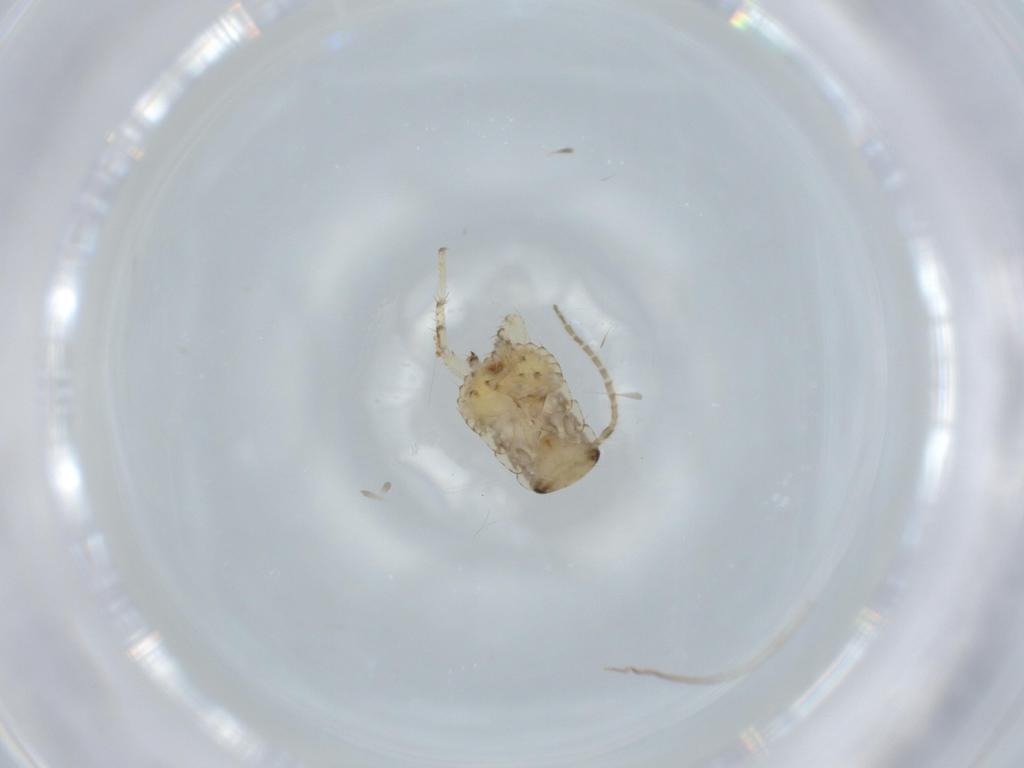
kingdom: Animalia
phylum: Arthropoda
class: Insecta
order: Blattodea
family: Ectobiidae
